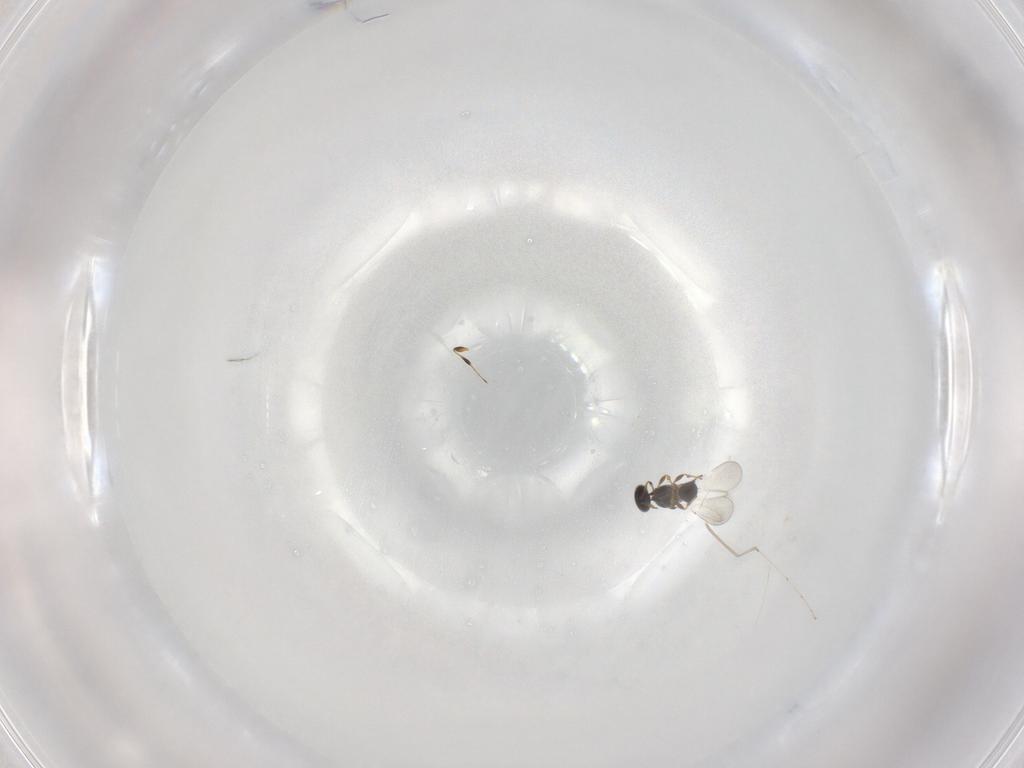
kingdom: Animalia
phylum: Arthropoda
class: Insecta
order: Hymenoptera
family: Platygastridae
